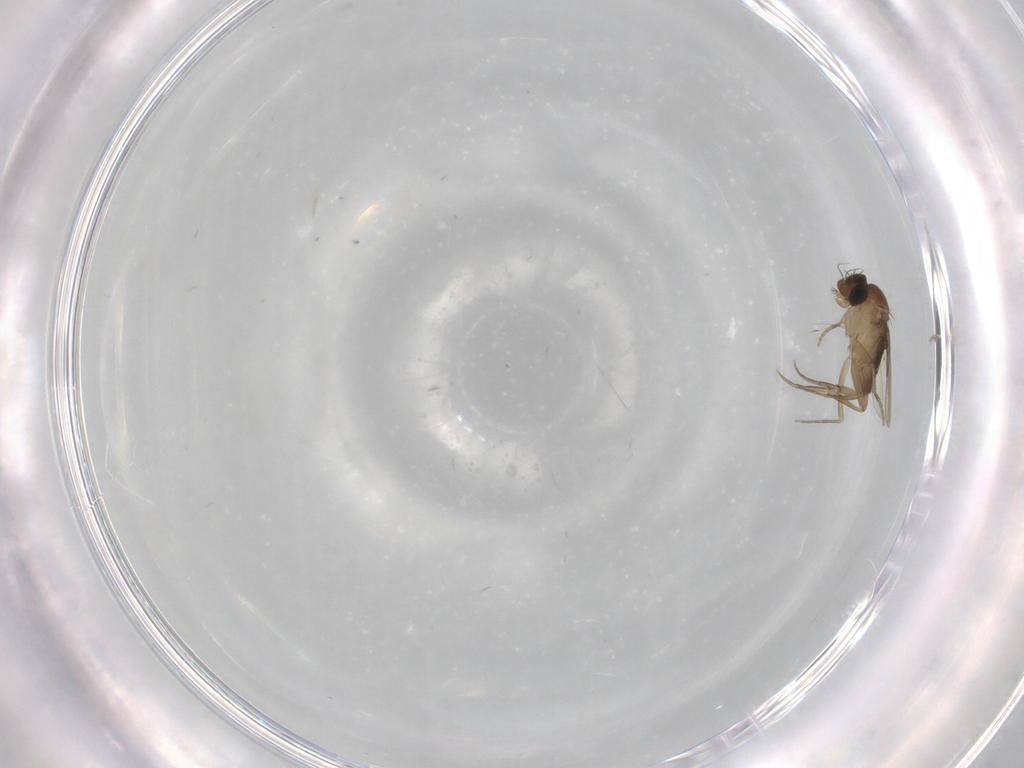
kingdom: Animalia
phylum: Arthropoda
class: Insecta
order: Diptera
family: Phoridae
